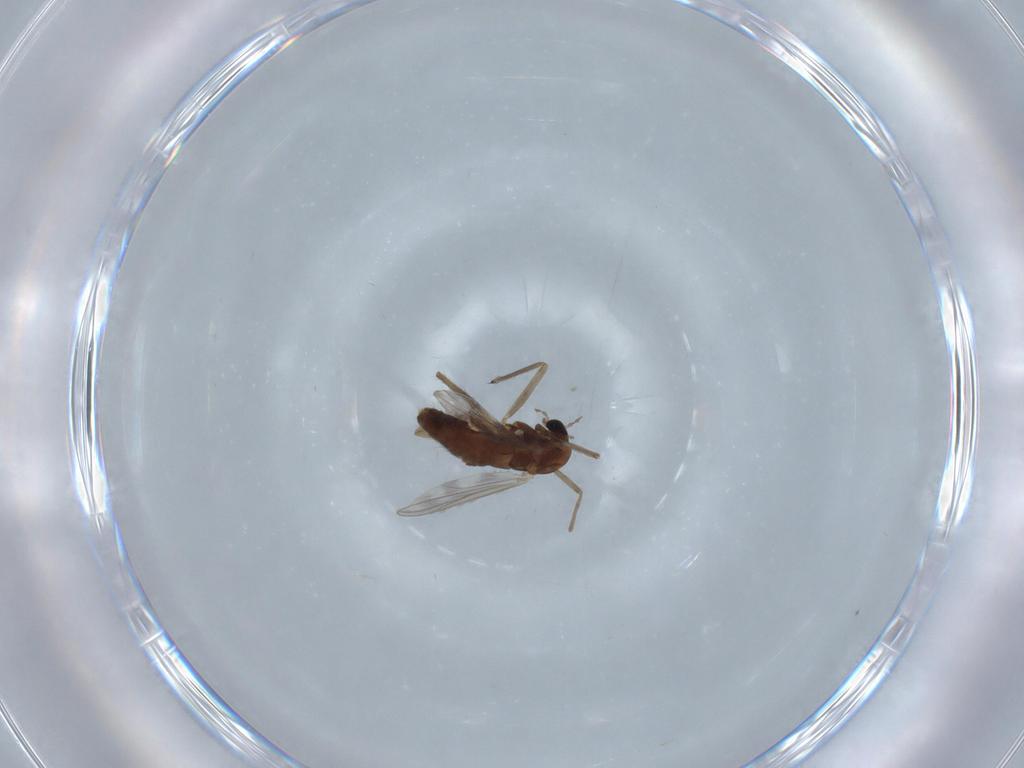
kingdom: Animalia
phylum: Arthropoda
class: Insecta
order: Diptera
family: Chironomidae
